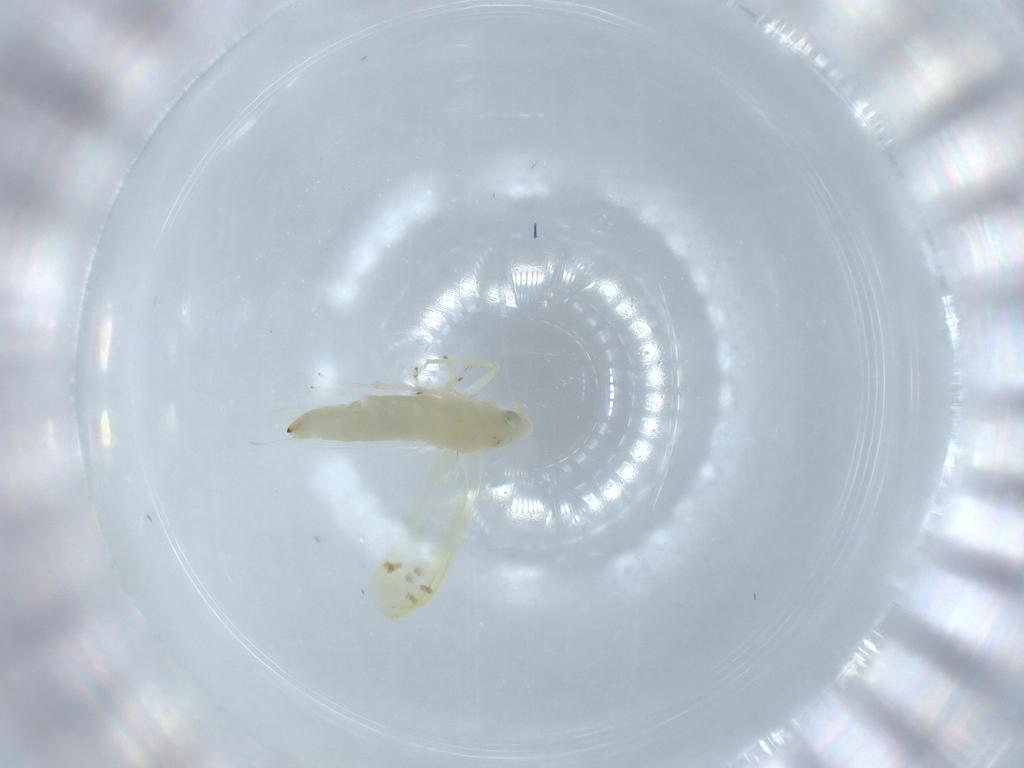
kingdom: Animalia
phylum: Arthropoda
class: Insecta
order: Hemiptera
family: Cicadellidae
